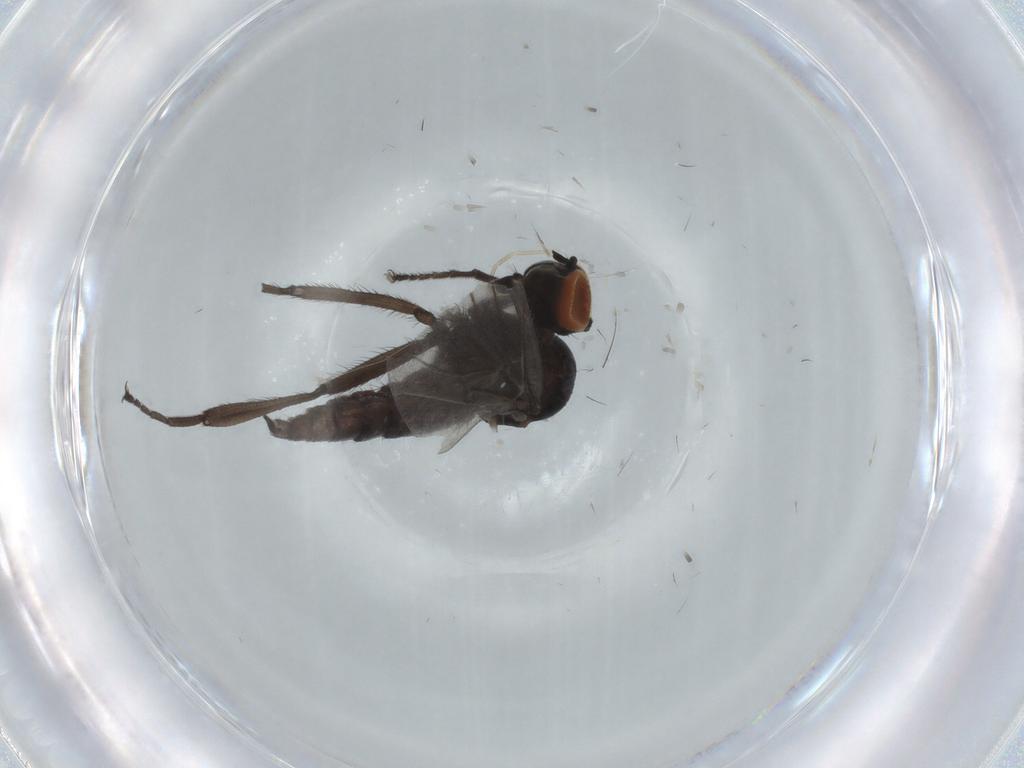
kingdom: Animalia
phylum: Arthropoda
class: Insecta
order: Diptera
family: Hybotidae
